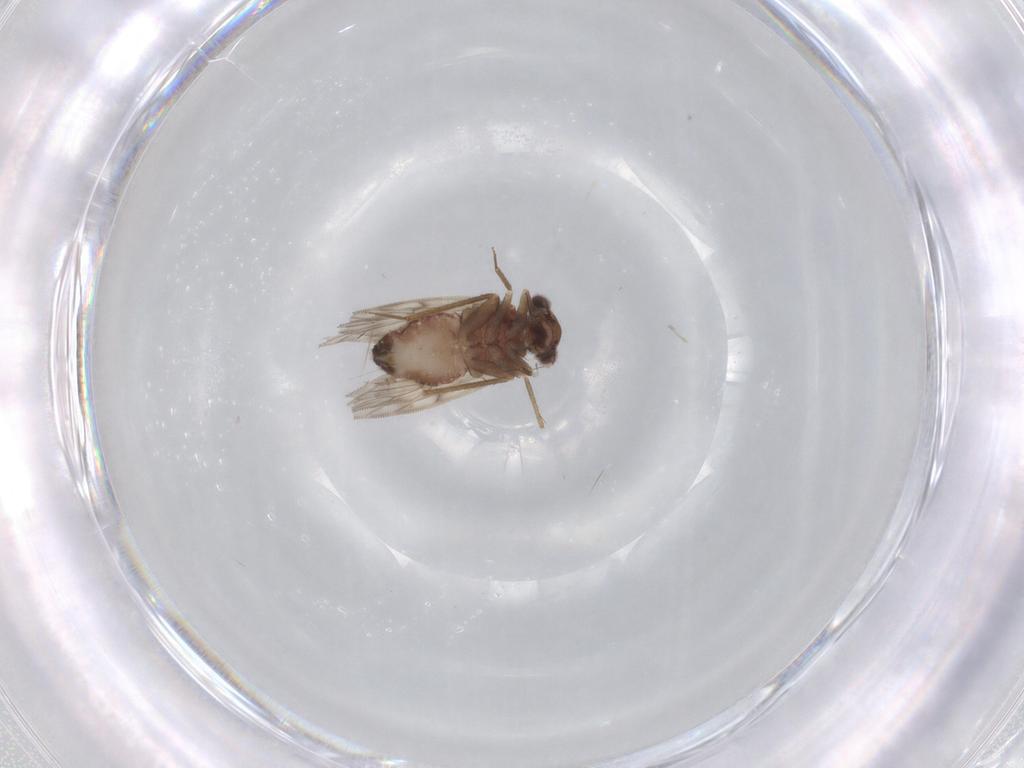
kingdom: Animalia
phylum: Arthropoda
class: Insecta
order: Psocodea
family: Lepidopsocidae
